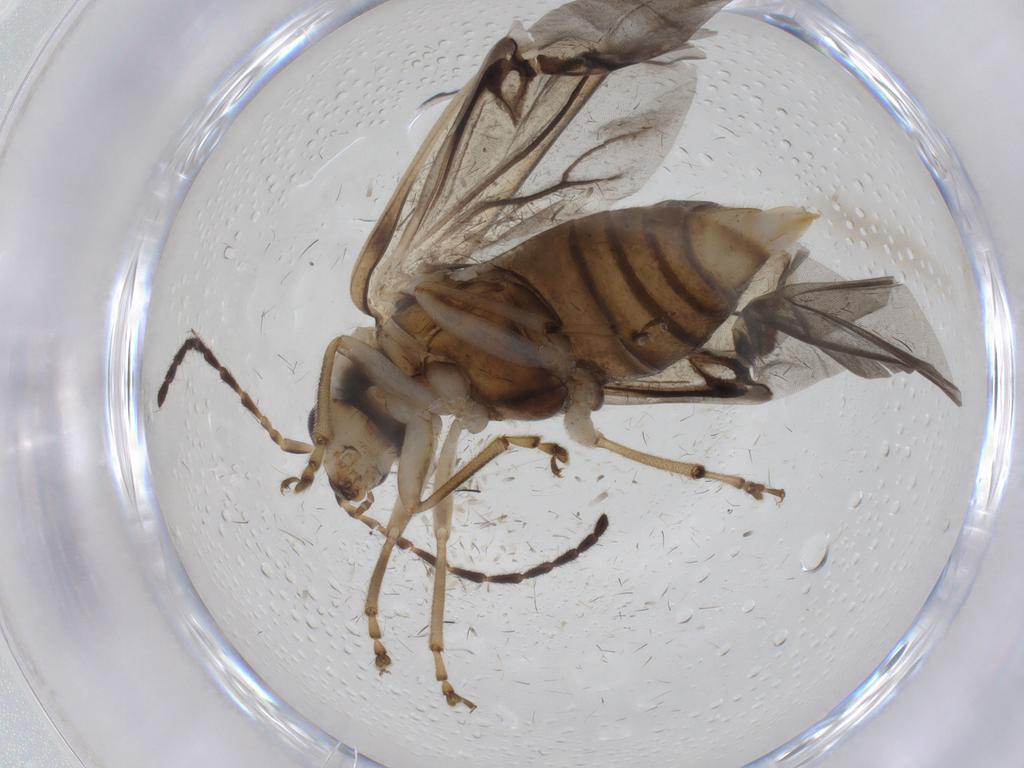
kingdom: Animalia
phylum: Arthropoda
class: Insecta
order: Coleoptera
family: Chrysomelidae
